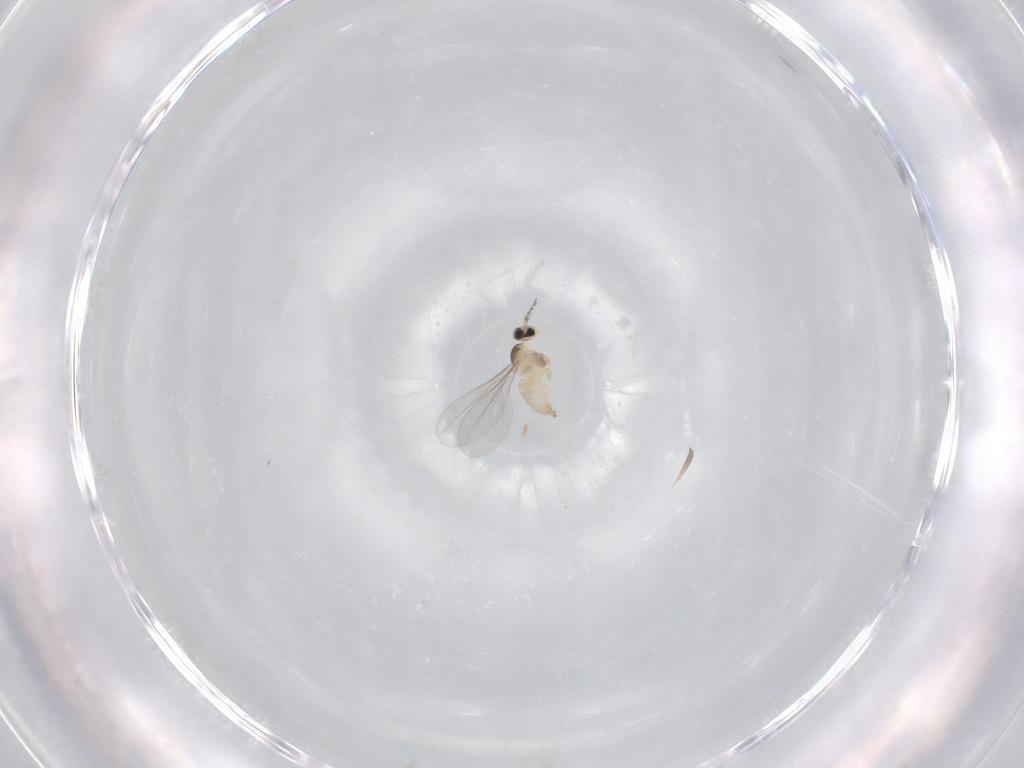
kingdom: Animalia
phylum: Arthropoda
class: Insecta
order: Diptera
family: Cecidomyiidae
